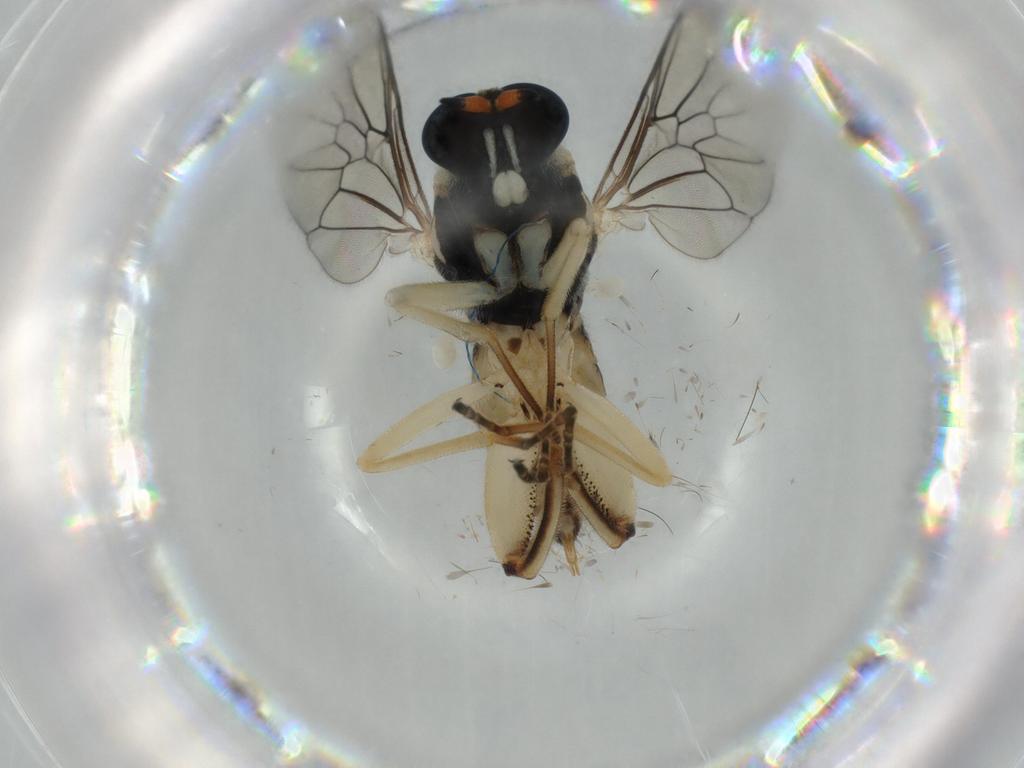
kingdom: Animalia
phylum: Arthropoda
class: Insecta
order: Diptera
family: Phoridae
